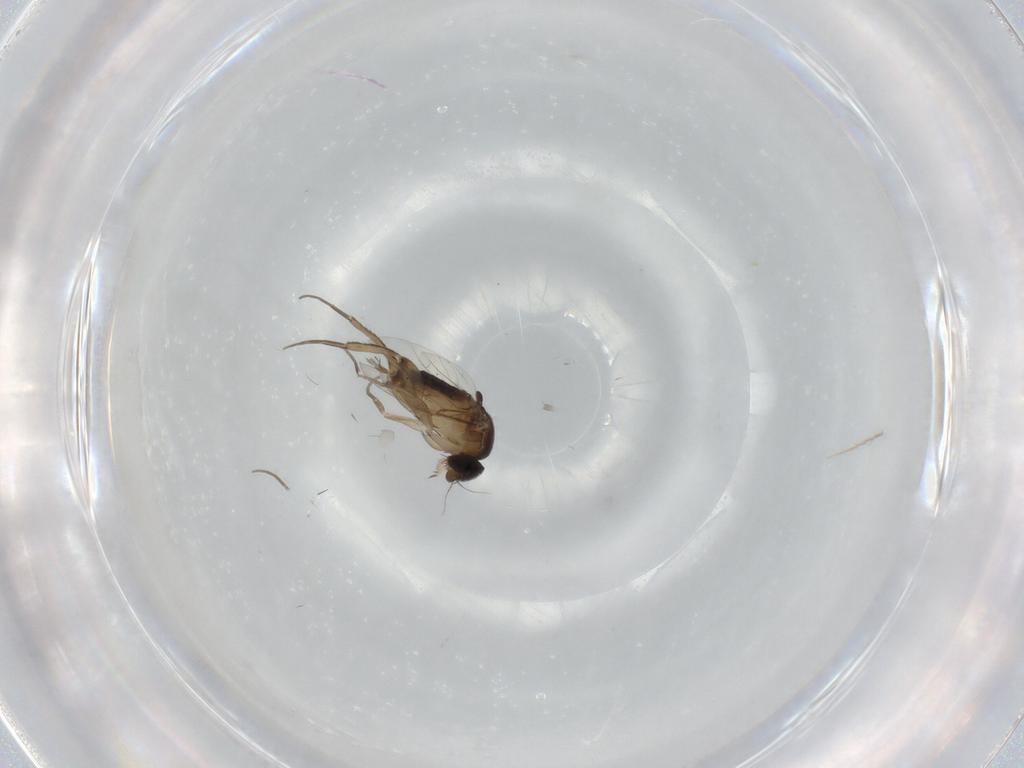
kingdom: Animalia
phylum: Arthropoda
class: Insecta
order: Diptera
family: Phoridae
